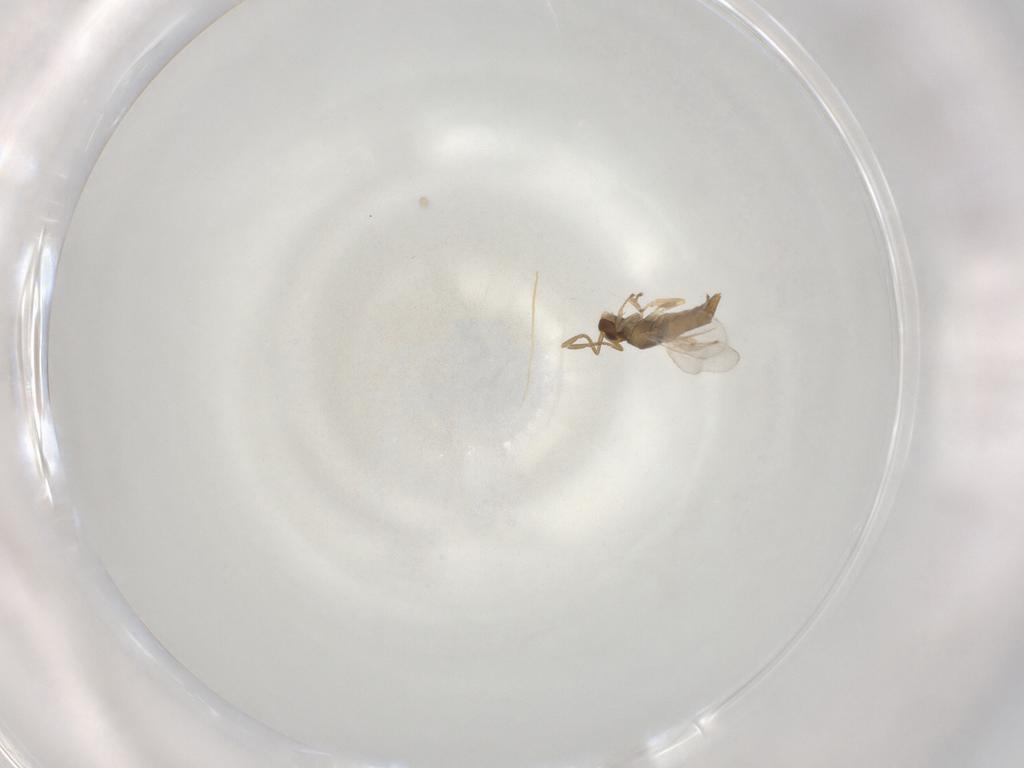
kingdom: Animalia
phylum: Arthropoda
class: Insecta
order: Hymenoptera
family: Encyrtidae
